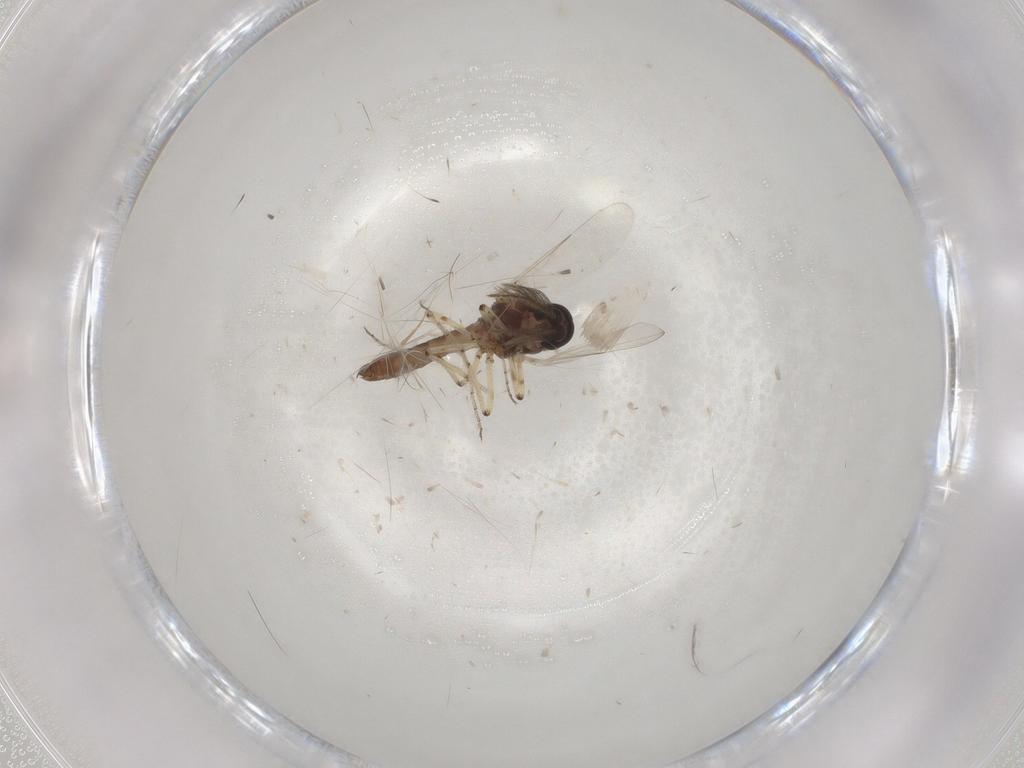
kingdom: Animalia
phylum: Arthropoda
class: Insecta
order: Diptera
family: Ceratopogonidae
